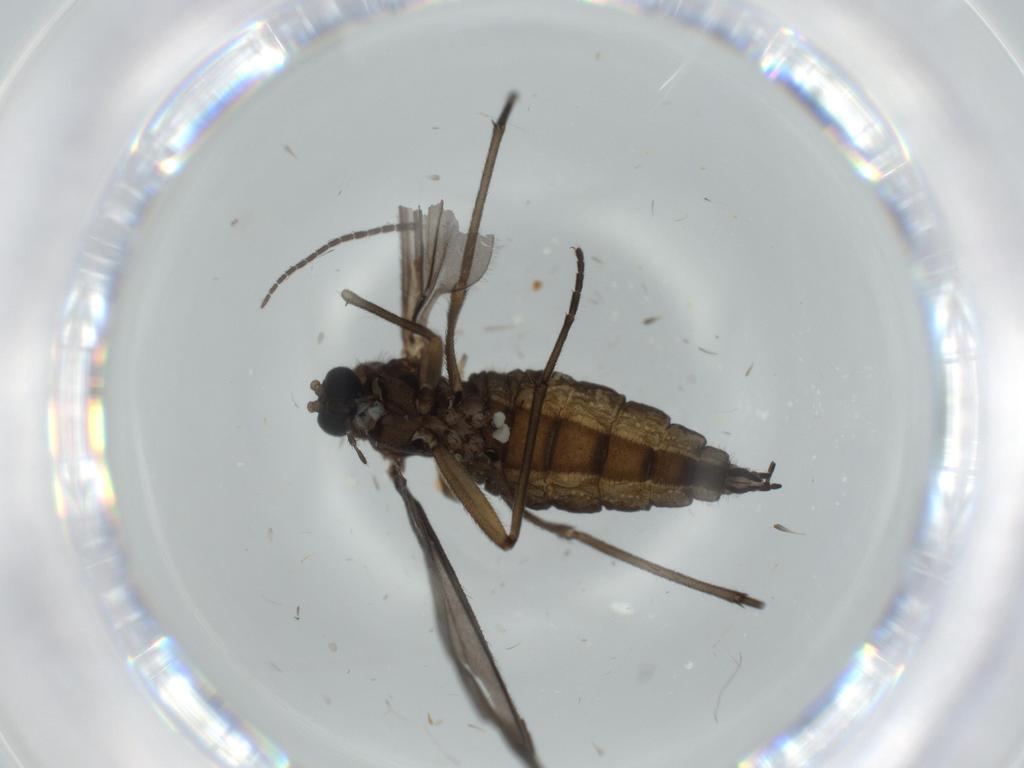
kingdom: Animalia
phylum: Arthropoda
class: Insecta
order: Diptera
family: Sciaridae
